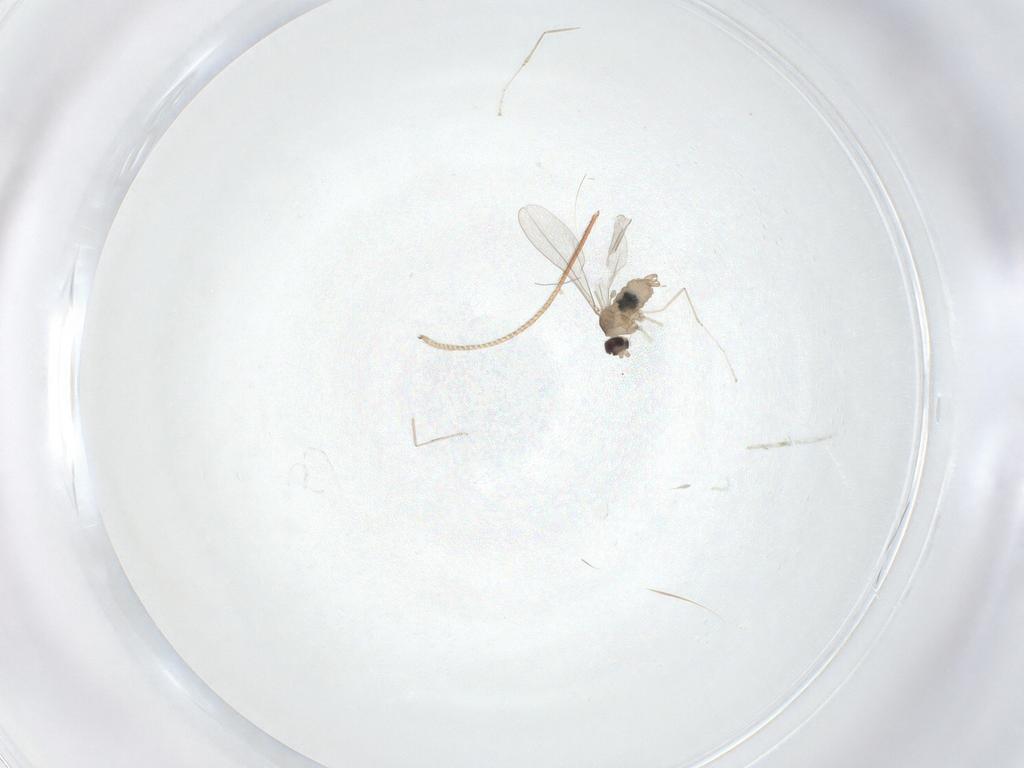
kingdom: Animalia
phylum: Arthropoda
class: Insecta
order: Diptera
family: Cecidomyiidae
